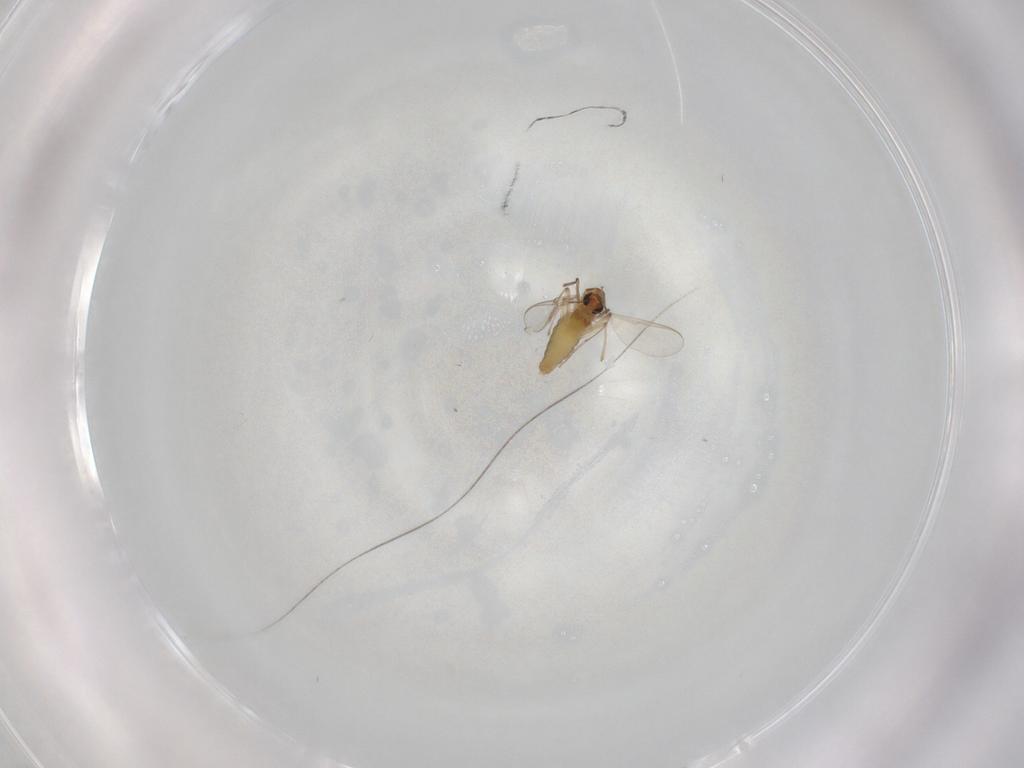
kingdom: Animalia
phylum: Arthropoda
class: Insecta
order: Diptera
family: Chironomidae
